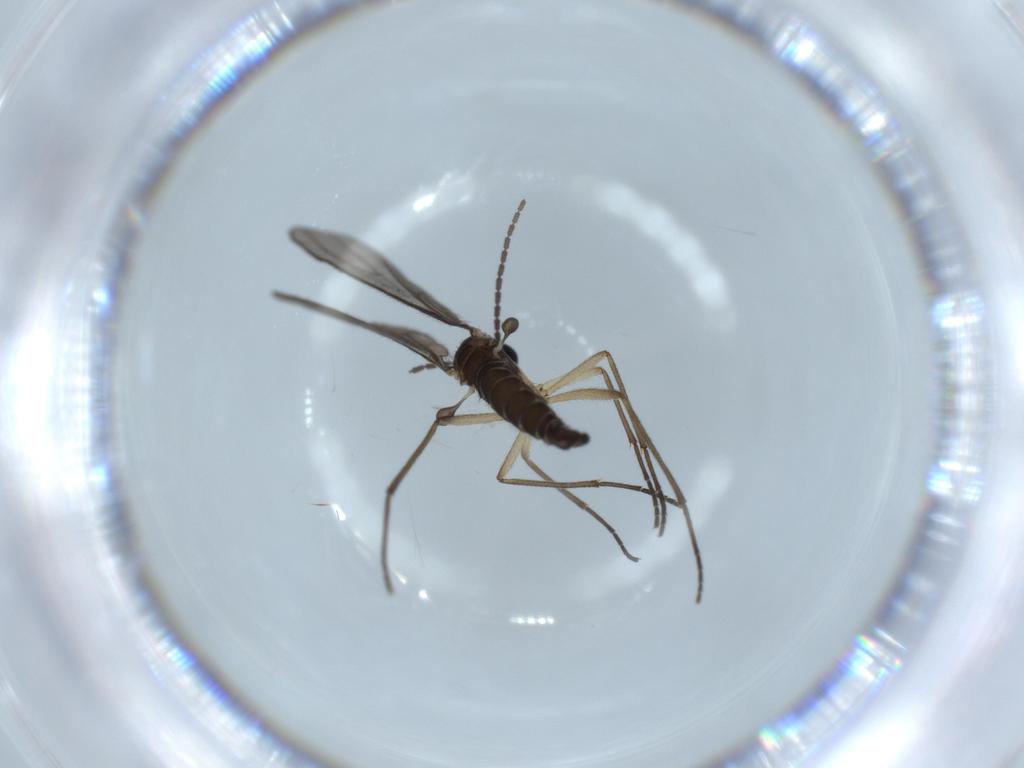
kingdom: Animalia
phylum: Arthropoda
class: Insecta
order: Diptera
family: Sciaridae
